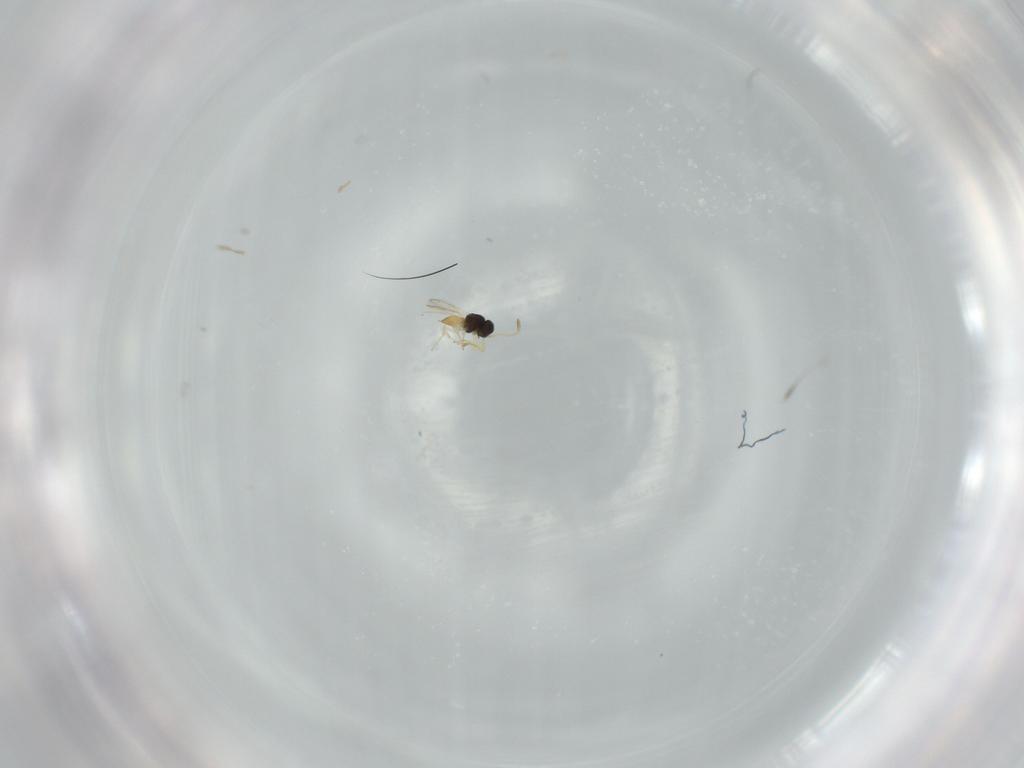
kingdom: Animalia
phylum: Arthropoda
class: Insecta
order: Hymenoptera
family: Scelionidae
